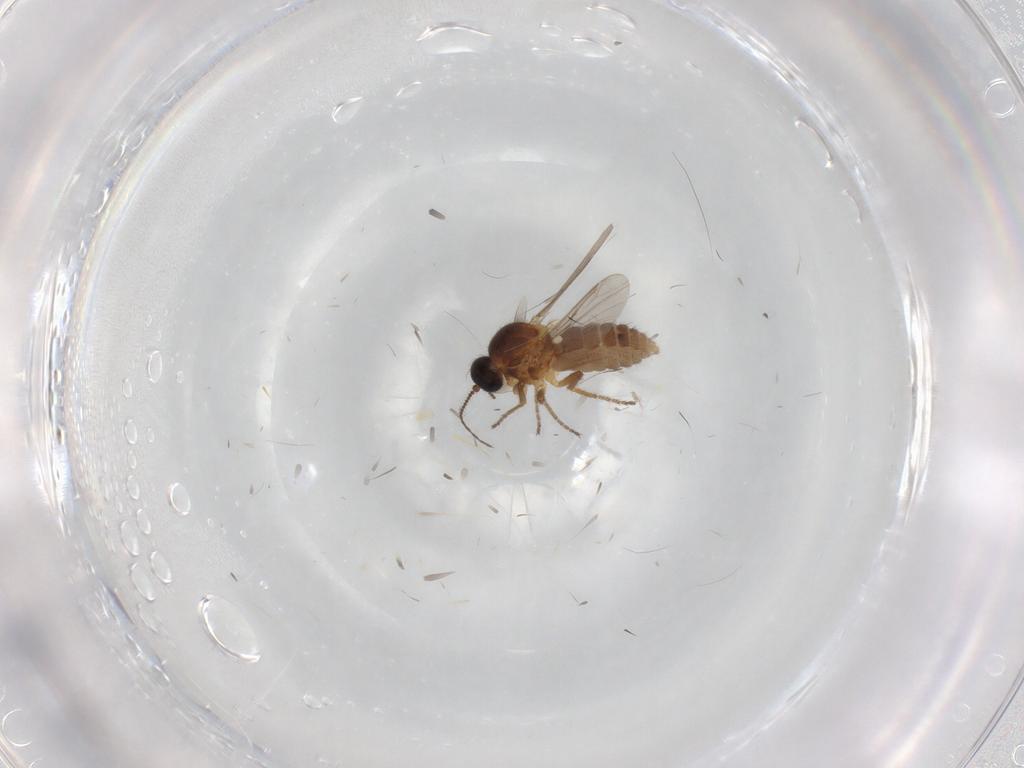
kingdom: Animalia
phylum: Arthropoda
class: Insecta
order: Diptera
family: Ceratopogonidae
